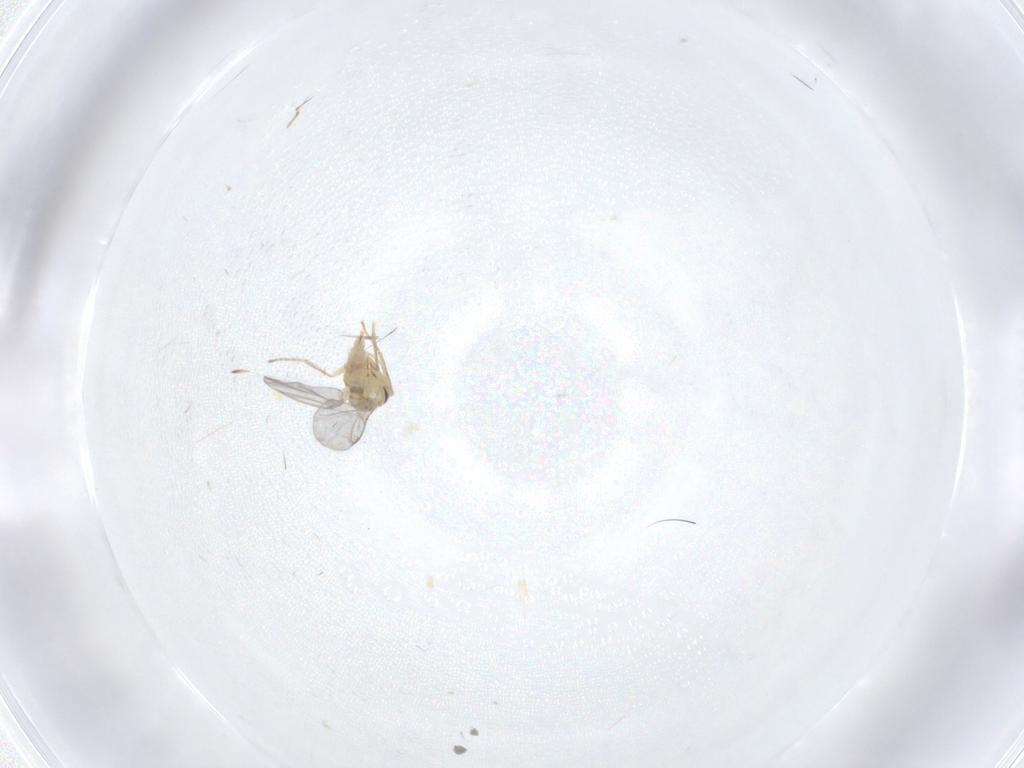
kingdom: Animalia
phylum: Arthropoda
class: Insecta
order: Diptera
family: Agromyzidae
